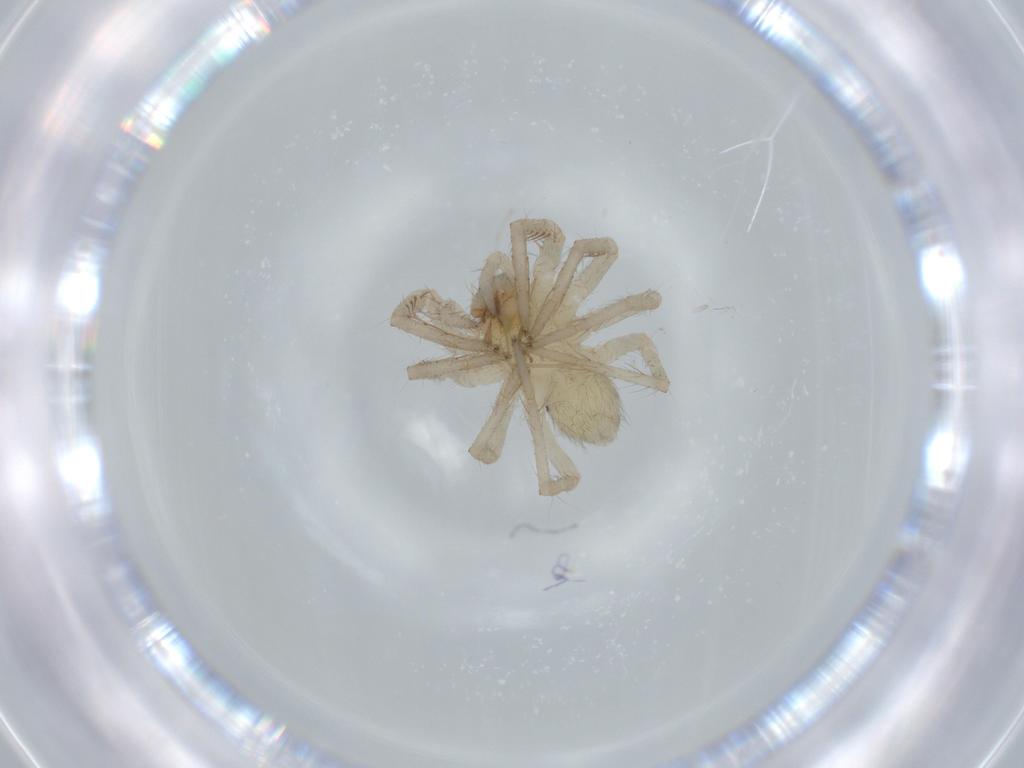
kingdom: Animalia
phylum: Arthropoda
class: Arachnida
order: Araneae
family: Ctenidae
